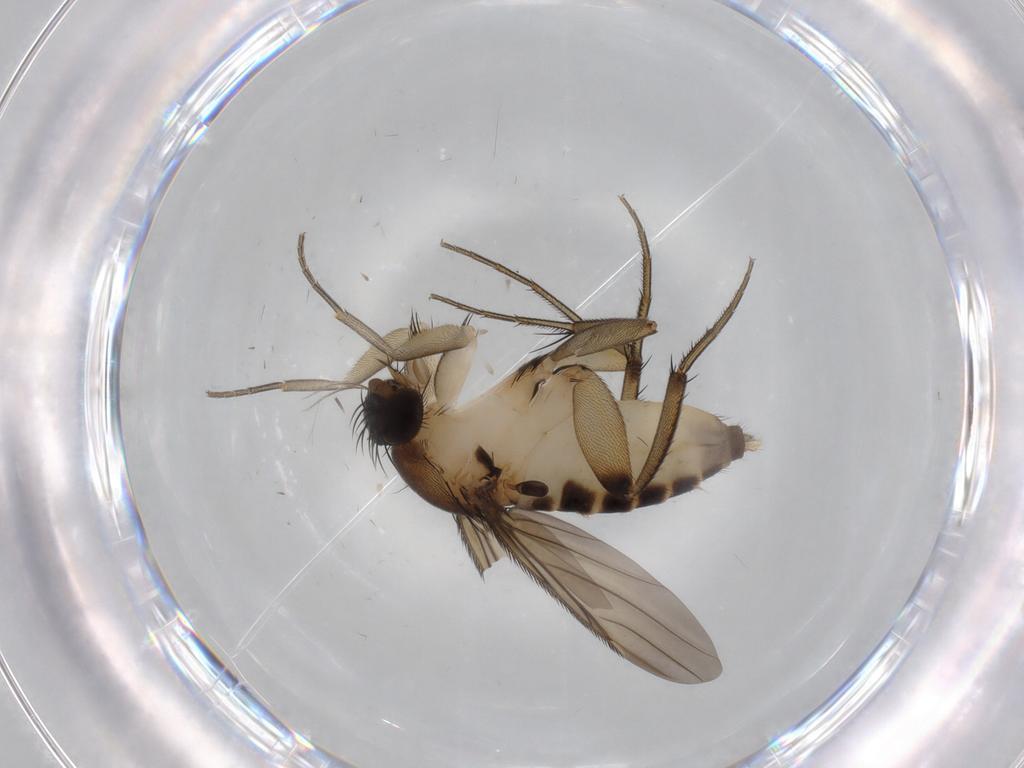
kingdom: Animalia
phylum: Arthropoda
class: Insecta
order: Diptera
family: Phoridae
